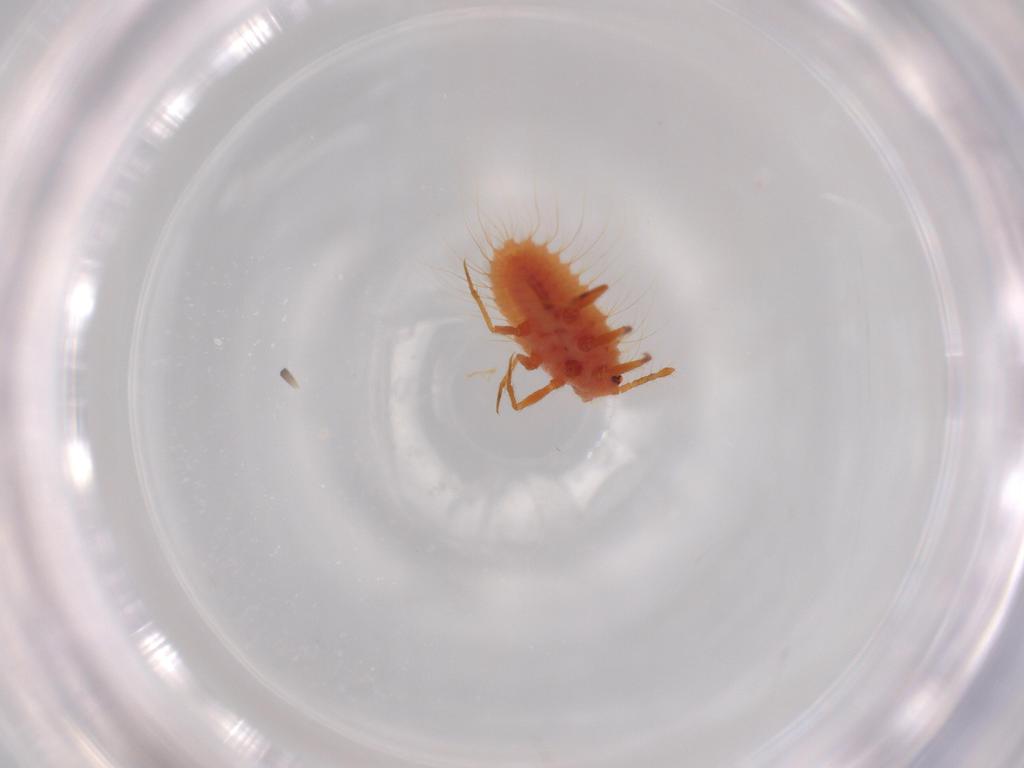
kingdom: Animalia
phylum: Arthropoda
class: Insecta
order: Hemiptera
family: Coccoidea_incertae_sedis
